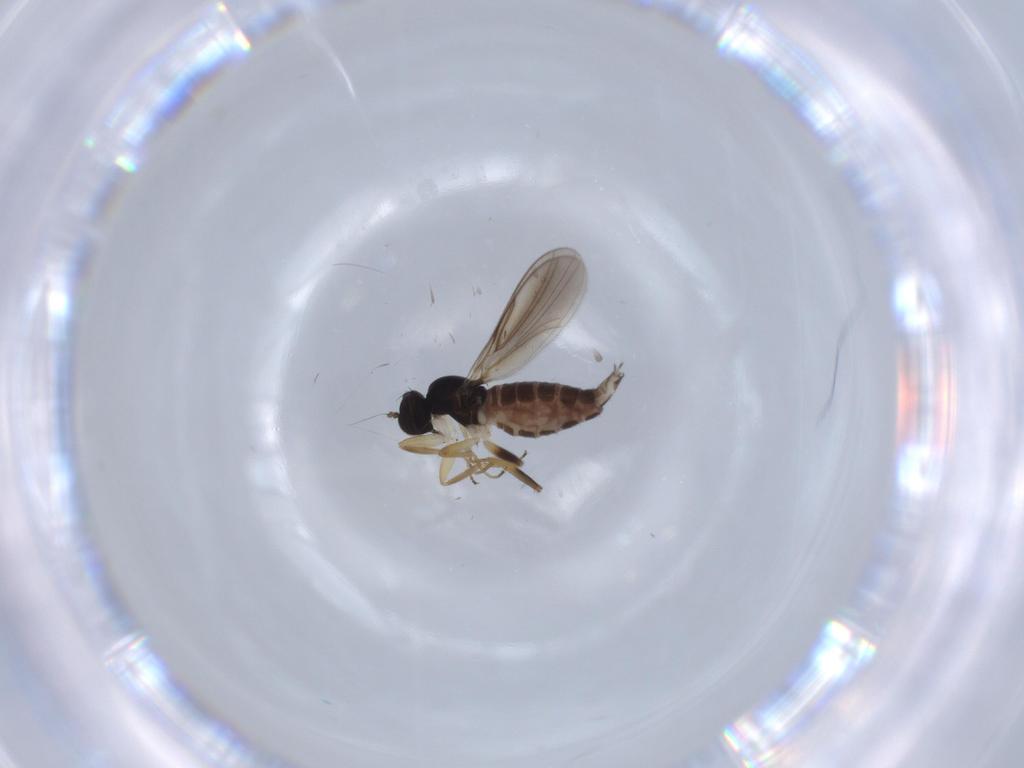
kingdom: Animalia
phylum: Arthropoda
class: Insecta
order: Diptera
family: Hybotidae
